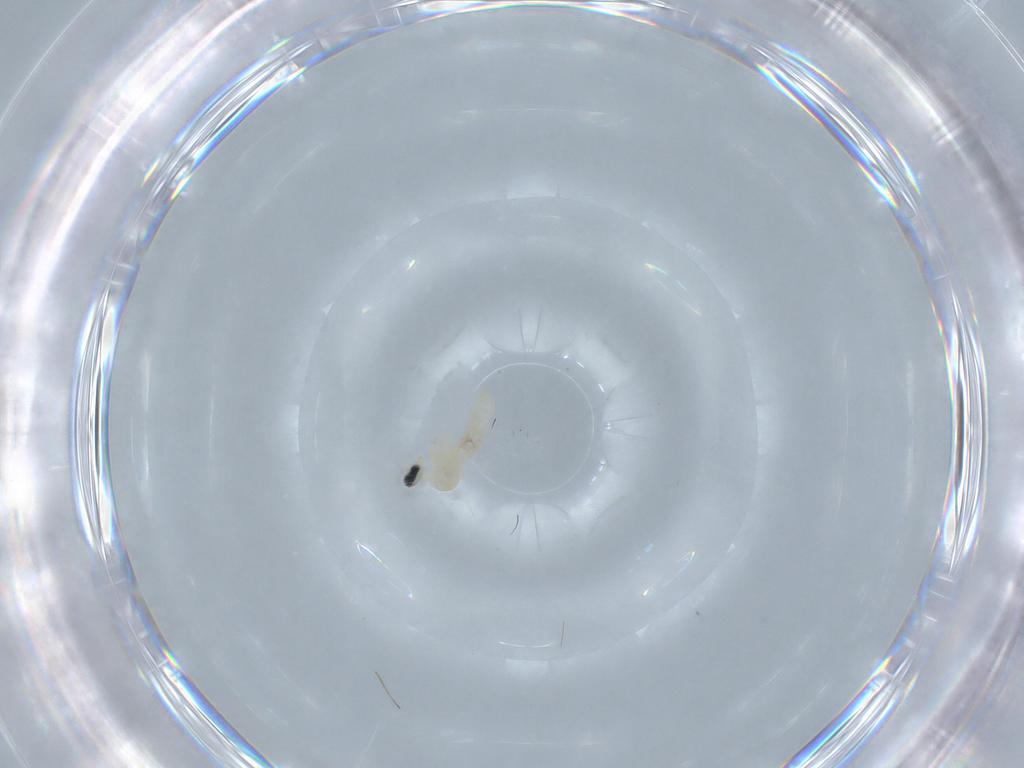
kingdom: Animalia
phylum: Arthropoda
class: Insecta
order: Diptera
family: Cecidomyiidae
